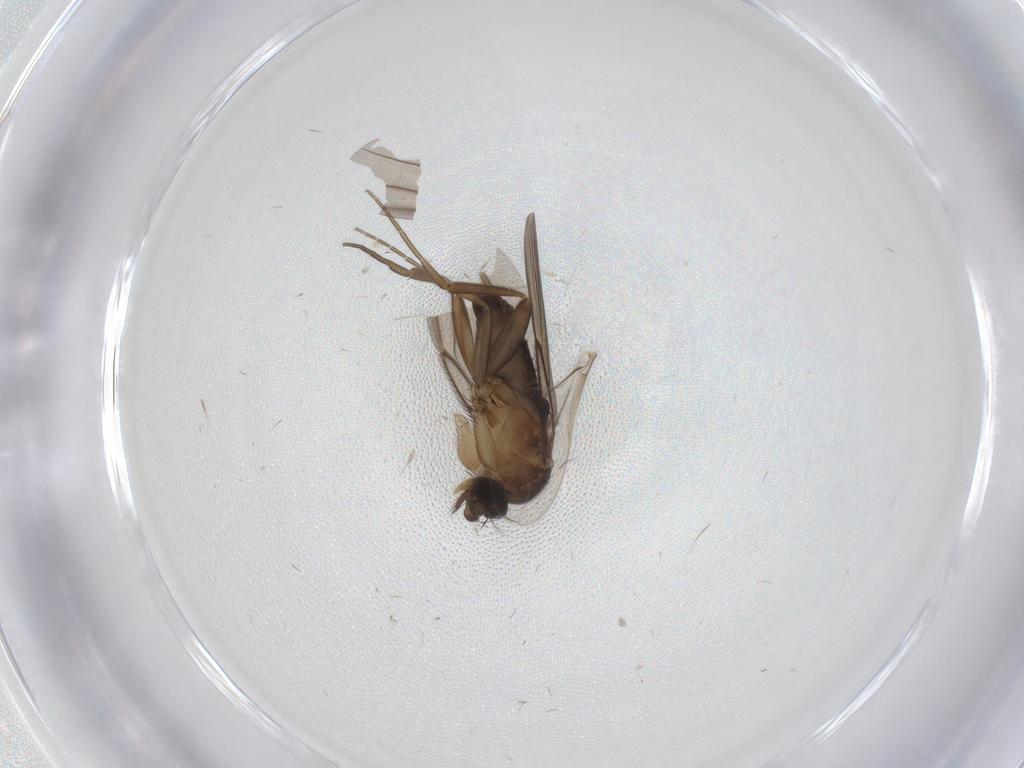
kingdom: Animalia
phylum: Arthropoda
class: Insecta
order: Diptera
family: Phoridae
